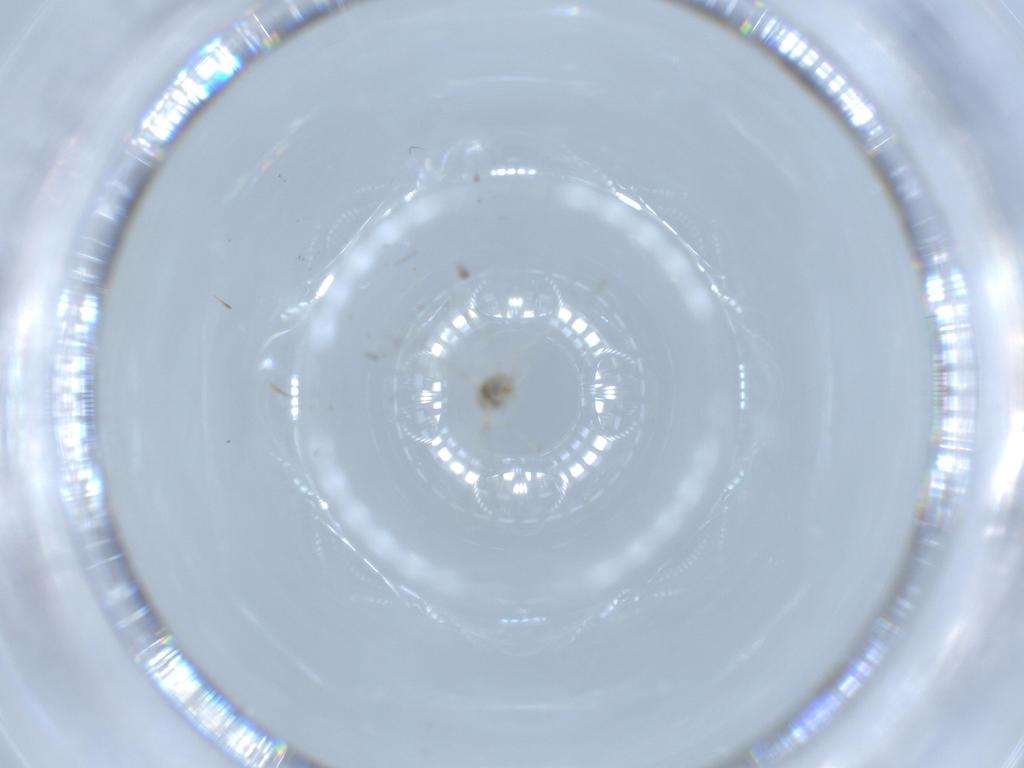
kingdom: Animalia
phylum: Arthropoda
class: Insecta
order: Diptera
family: Chironomidae
